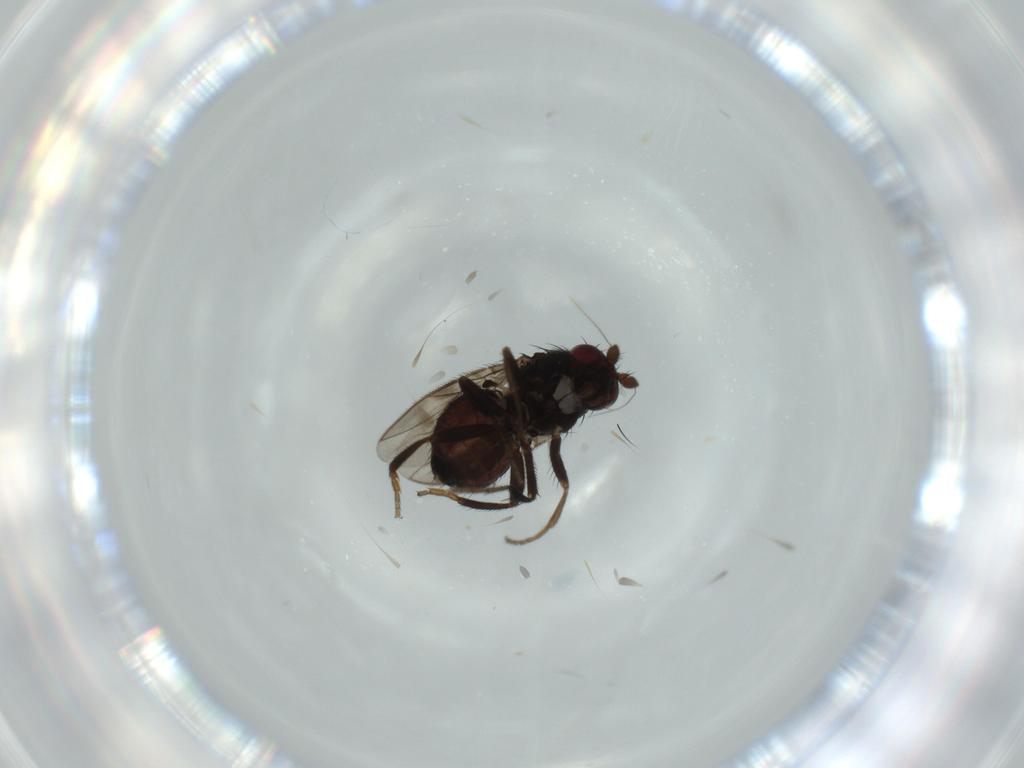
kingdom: Animalia
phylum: Arthropoda
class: Insecta
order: Diptera
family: Sphaeroceridae
